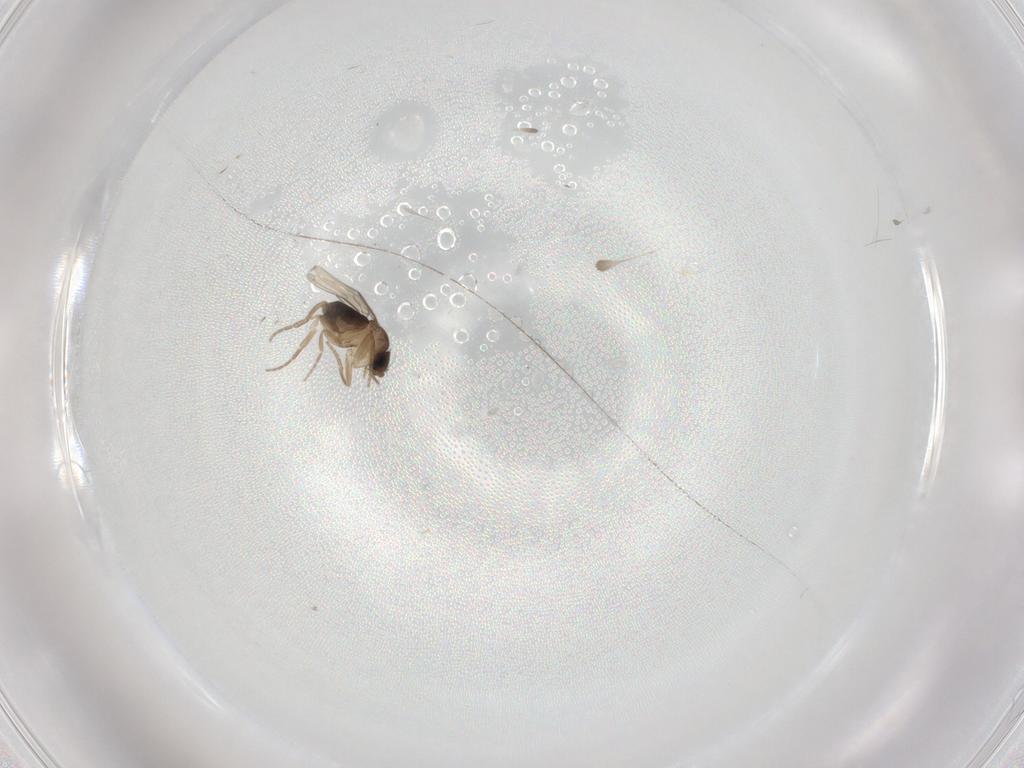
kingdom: Animalia
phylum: Arthropoda
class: Insecta
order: Diptera
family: Phoridae
